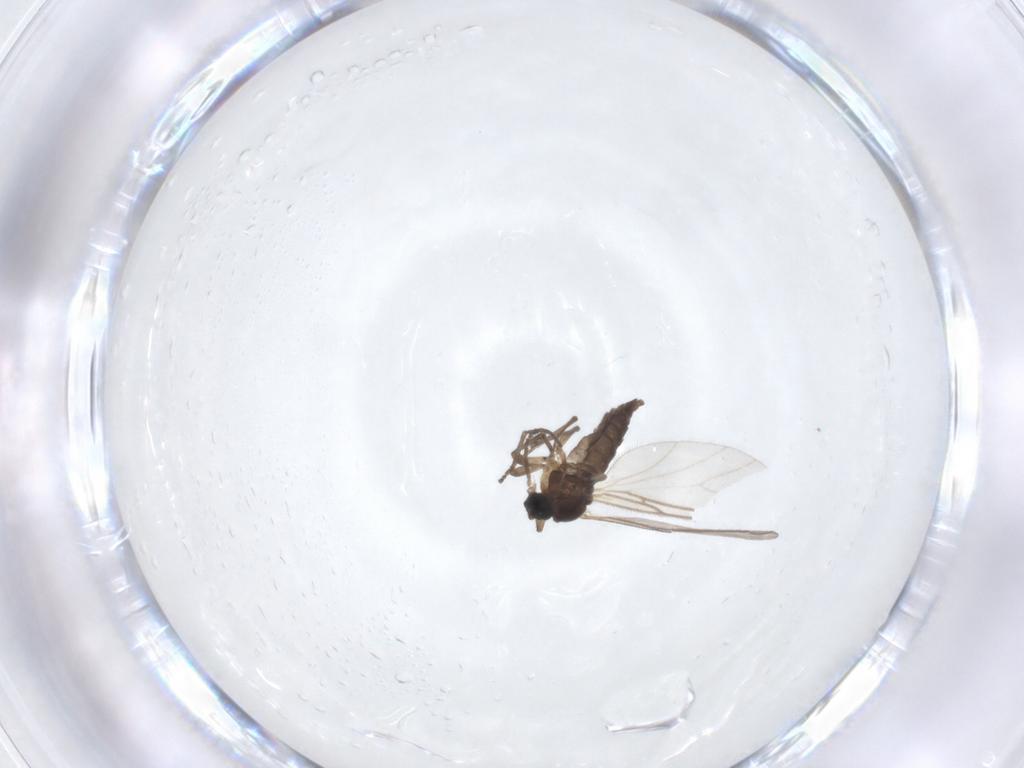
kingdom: Animalia
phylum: Arthropoda
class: Insecta
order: Diptera
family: Sciaridae
